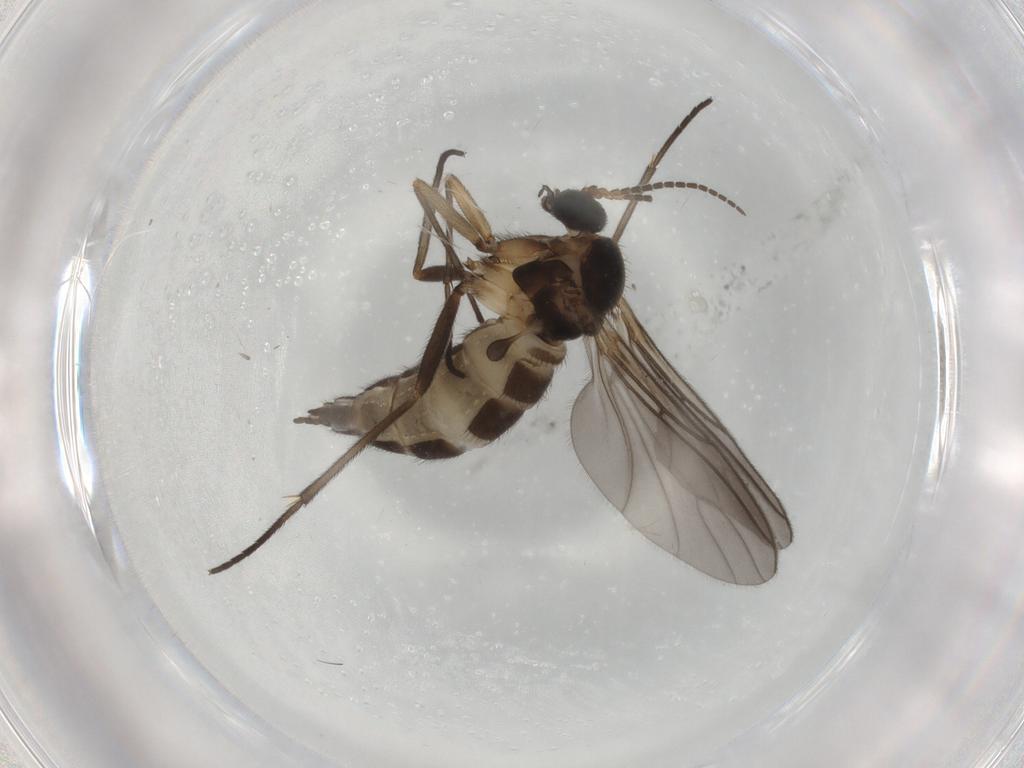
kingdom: Animalia
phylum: Arthropoda
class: Insecta
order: Diptera
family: Sciaridae
